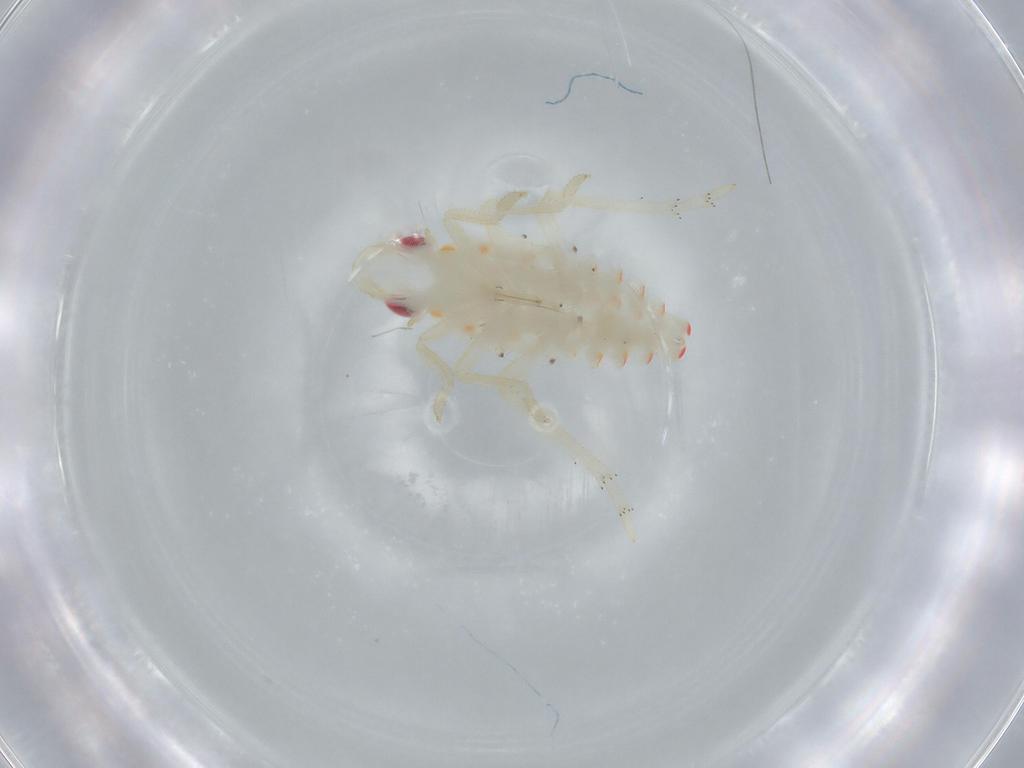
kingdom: Animalia
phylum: Arthropoda
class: Insecta
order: Hemiptera
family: Tropiduchidae
